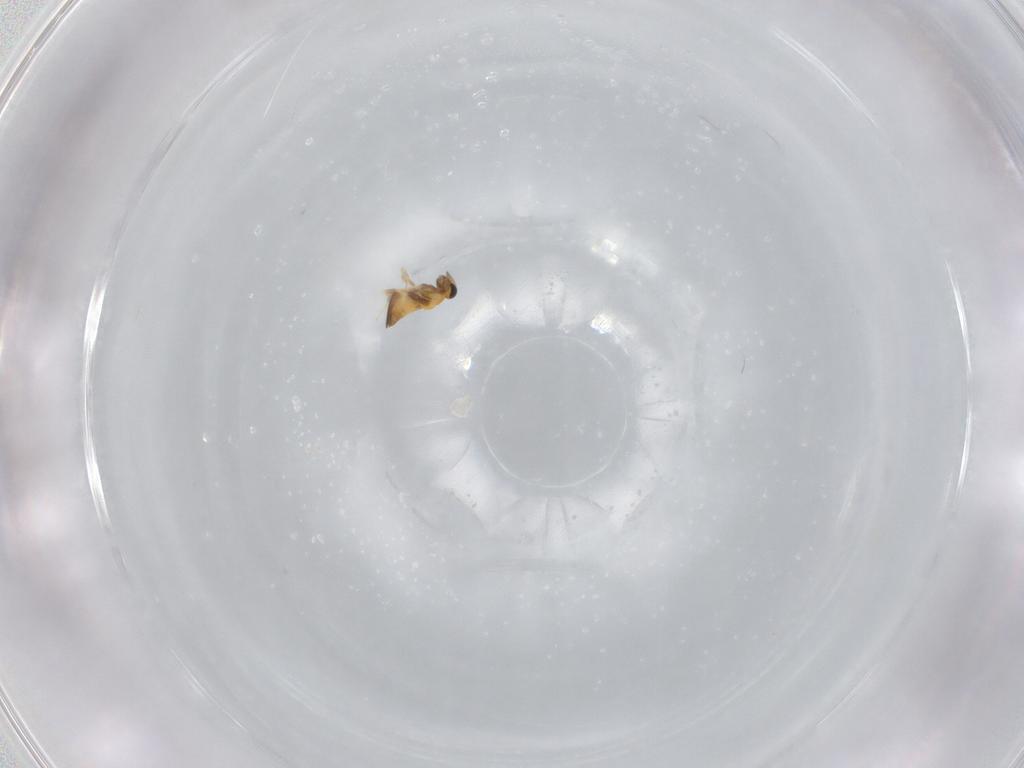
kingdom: Animalia
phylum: Arthropoda
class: Insecta
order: Hymenoptera
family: Trichogrammatidae
